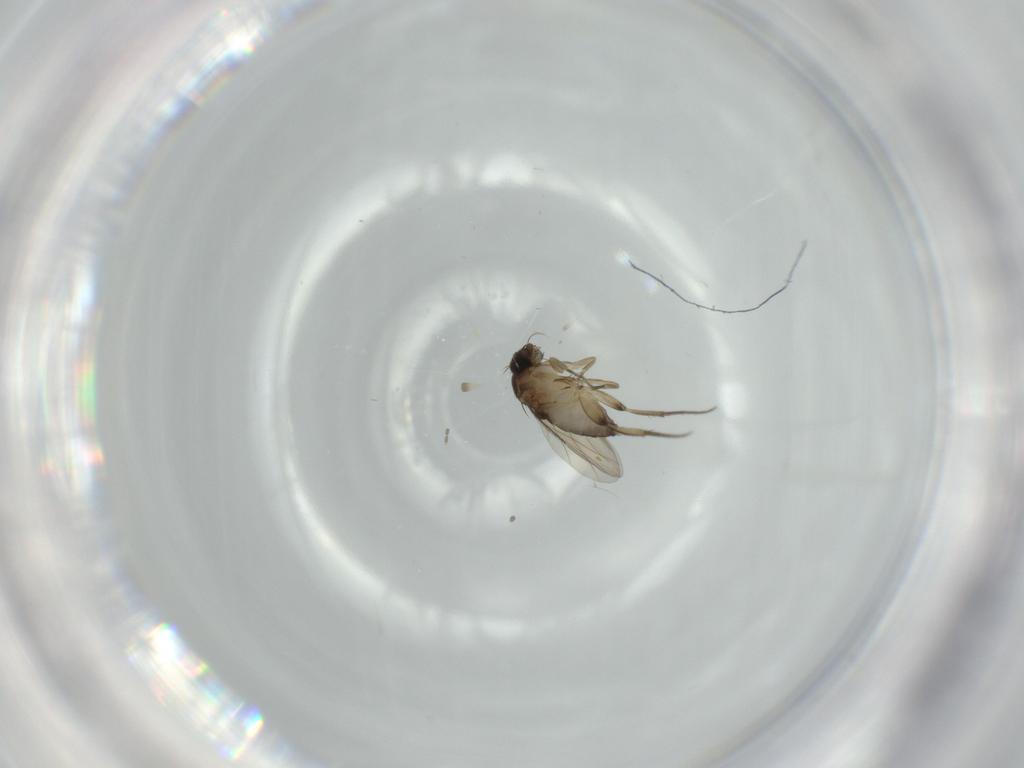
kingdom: Animalia
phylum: Arthropoda
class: Insecta
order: Diptera
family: Phoridae
